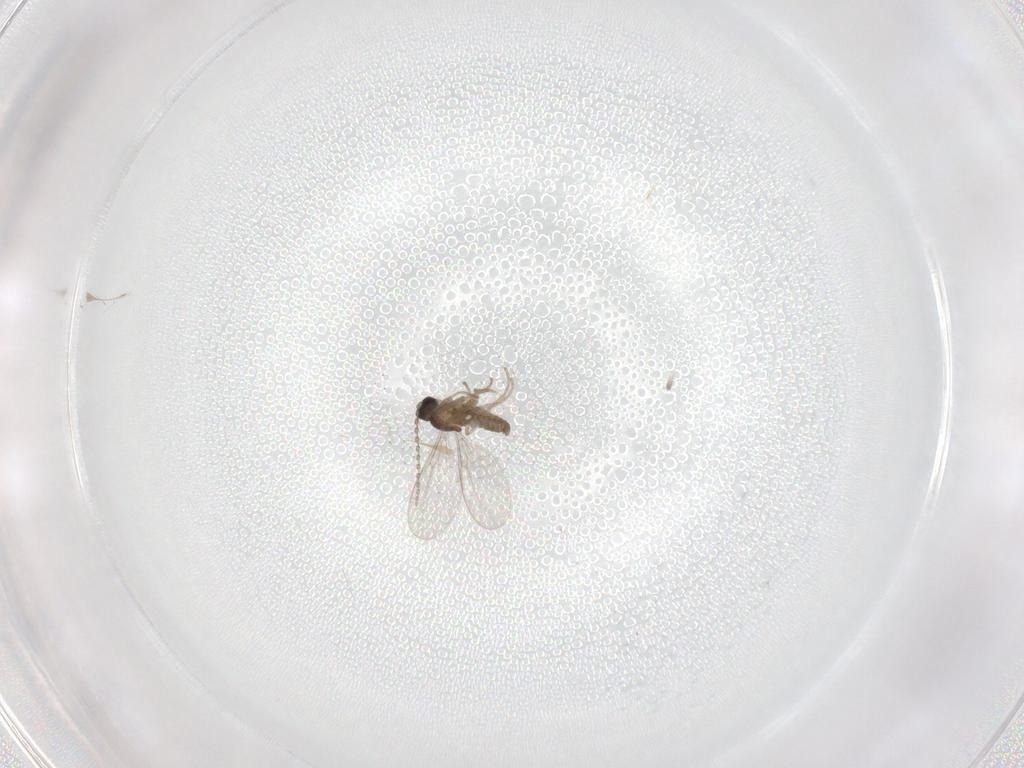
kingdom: Animalia
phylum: Arthropoda
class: Insecta
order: Diptera
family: Cecidomyiidae
